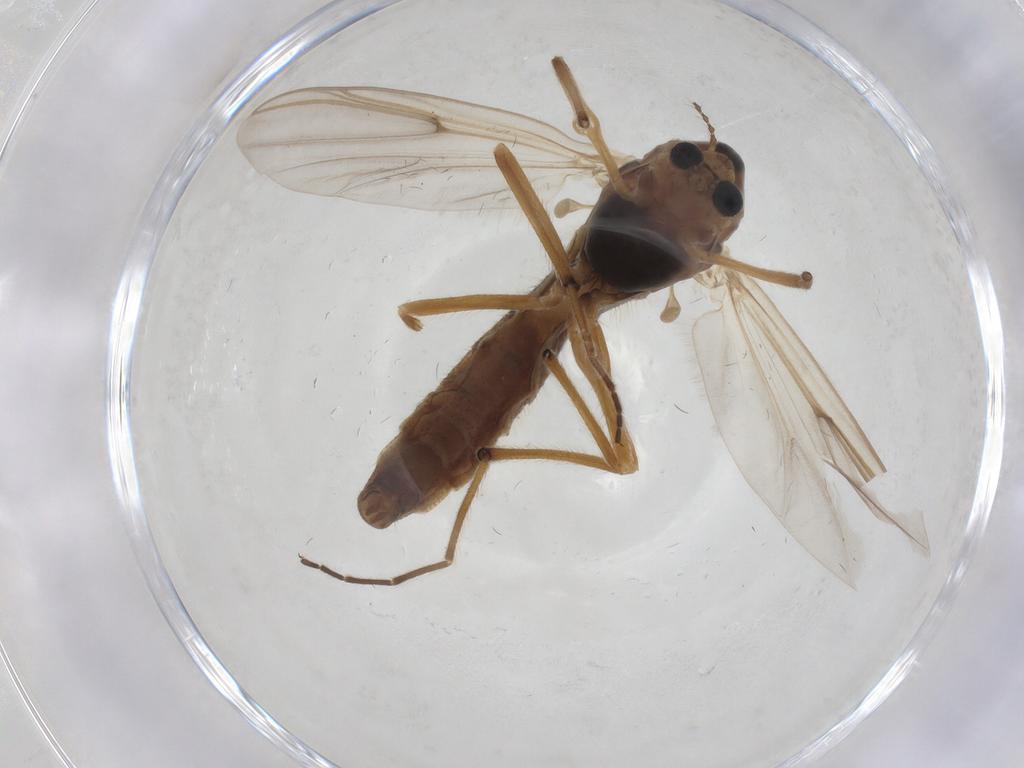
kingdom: Animalia
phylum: Arthropoda
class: Insecta
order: Diptera
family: Chironomidae
